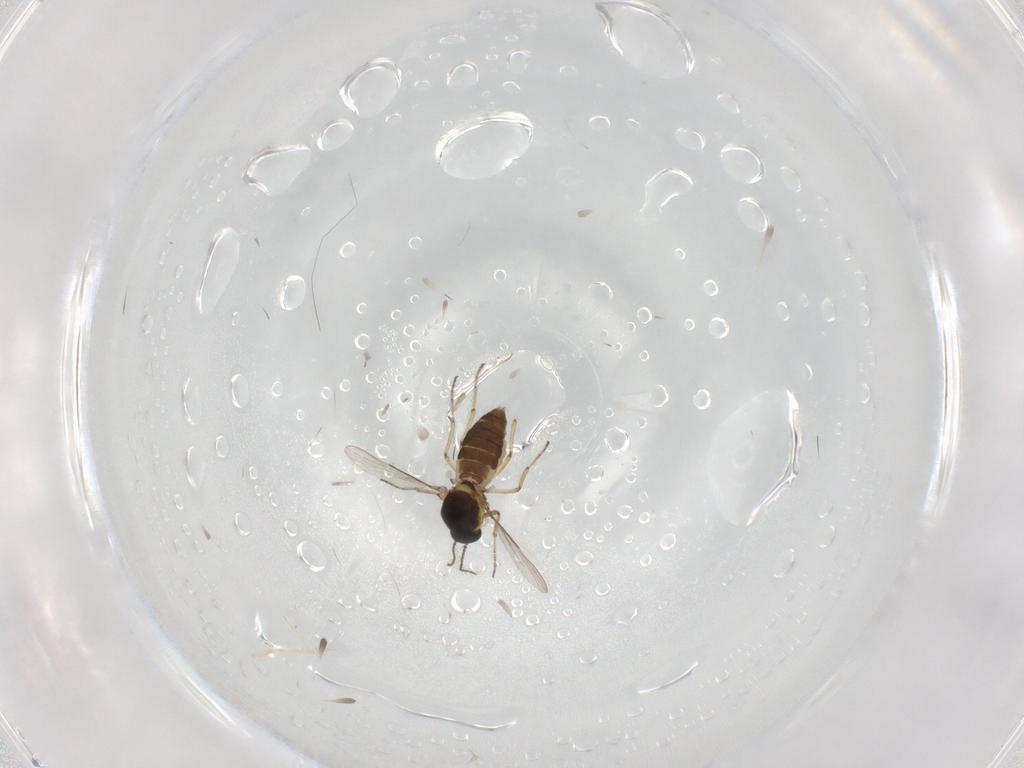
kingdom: Animalia
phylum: Arthropoda
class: Insecta
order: Diptera
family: Ceratopogonidae
